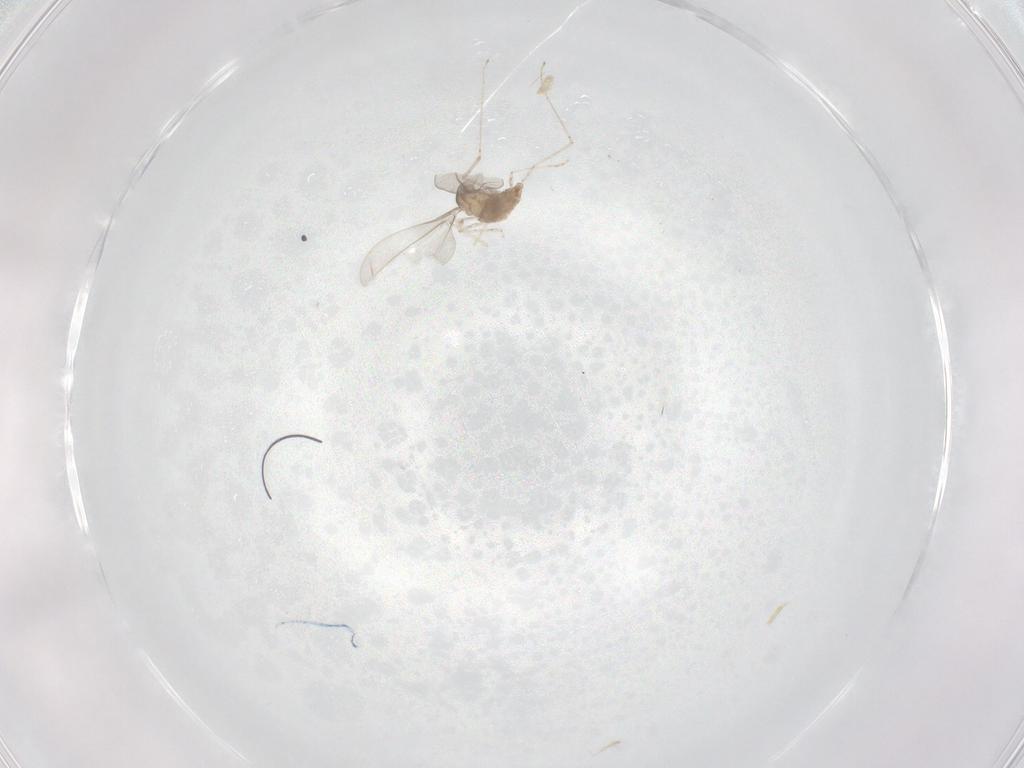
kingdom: Animalia
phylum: Arthropoda
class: Insecta
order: Diptera
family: Cecidomyiidae
